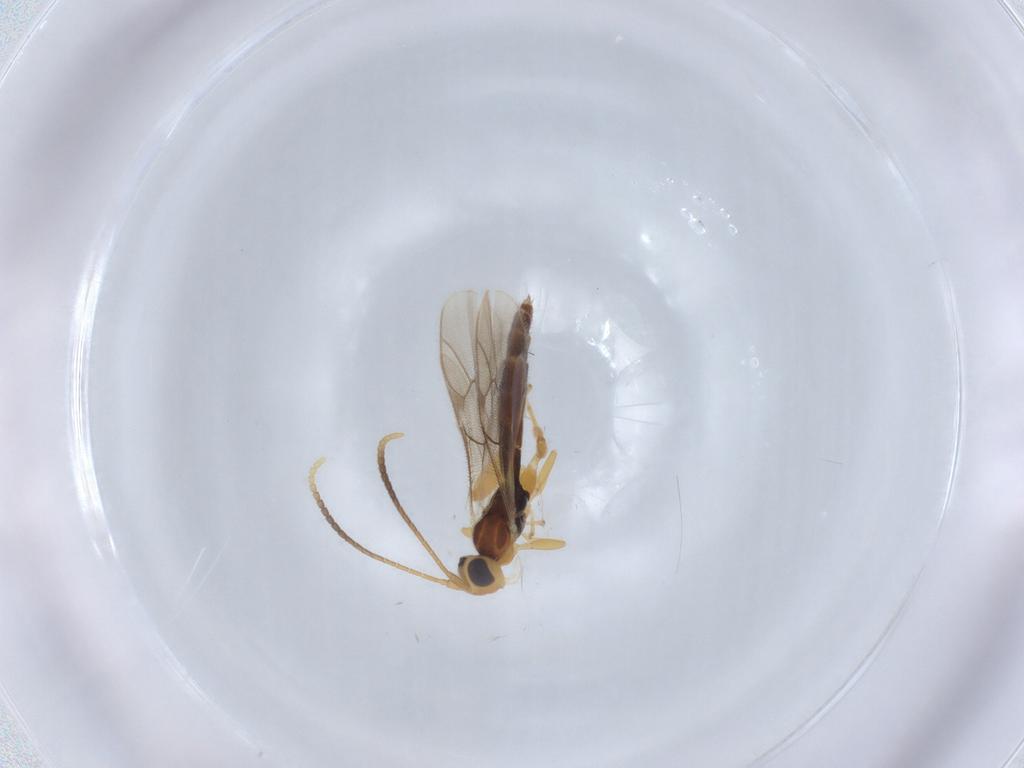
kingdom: Animalia
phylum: Arthropoda
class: Insecta
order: Hymenoptera
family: Ichneumonidae
